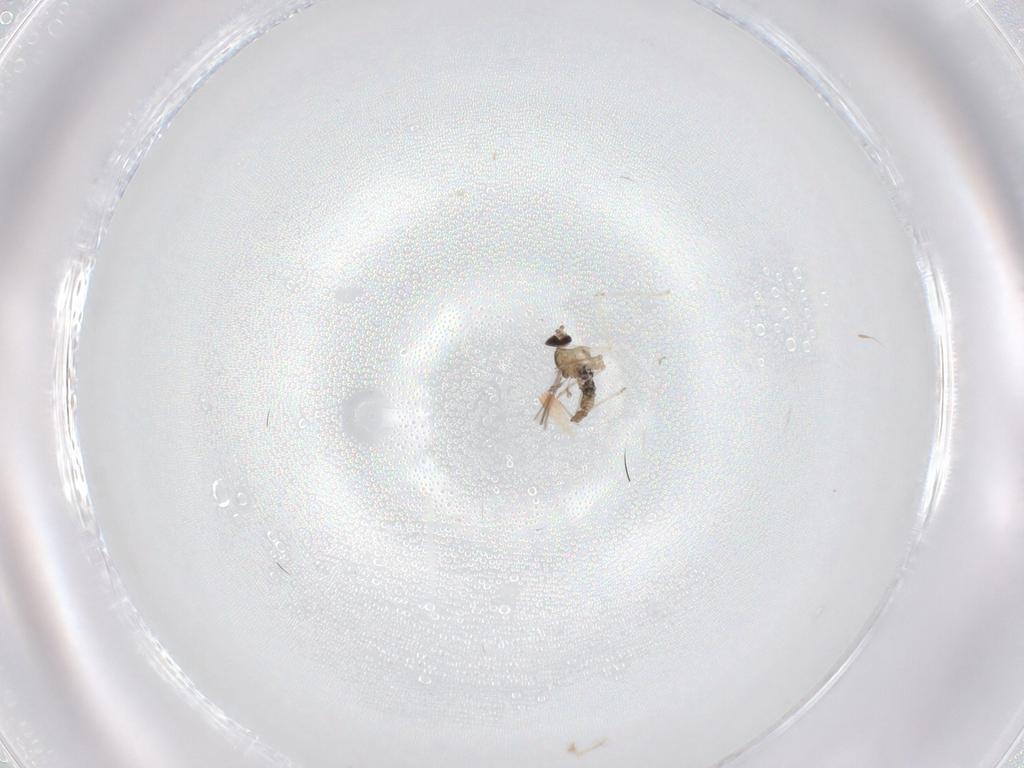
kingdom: Animalia
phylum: Arthropoda
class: Insecta
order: Diptera
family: Cecidomyiidae
